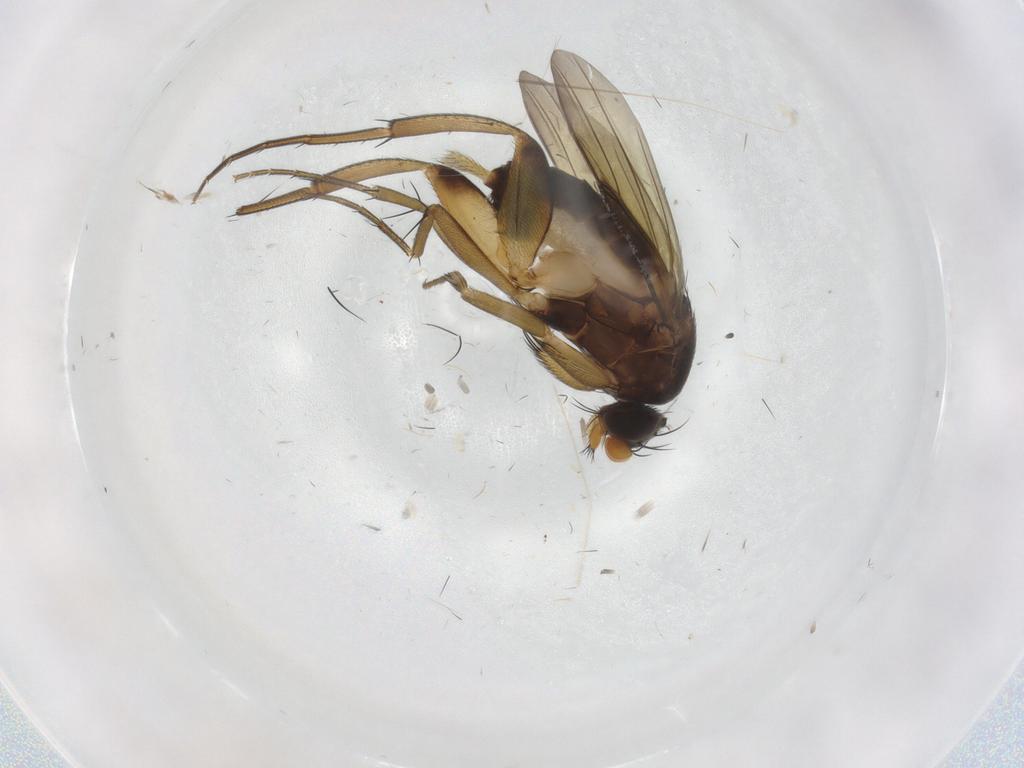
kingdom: Animalia
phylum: Arthropoda
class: Insecta
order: Diptera
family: Phoridae
